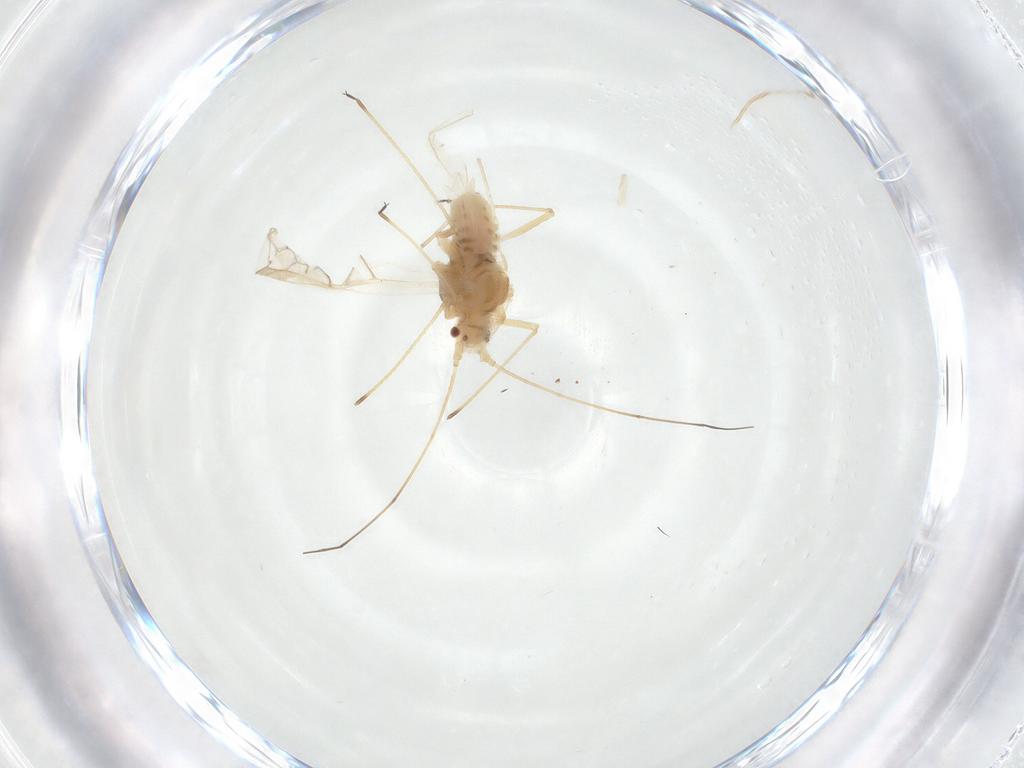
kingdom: Animalia
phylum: Arthropoda
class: Insecta
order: Hemiptera
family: Aphididae
